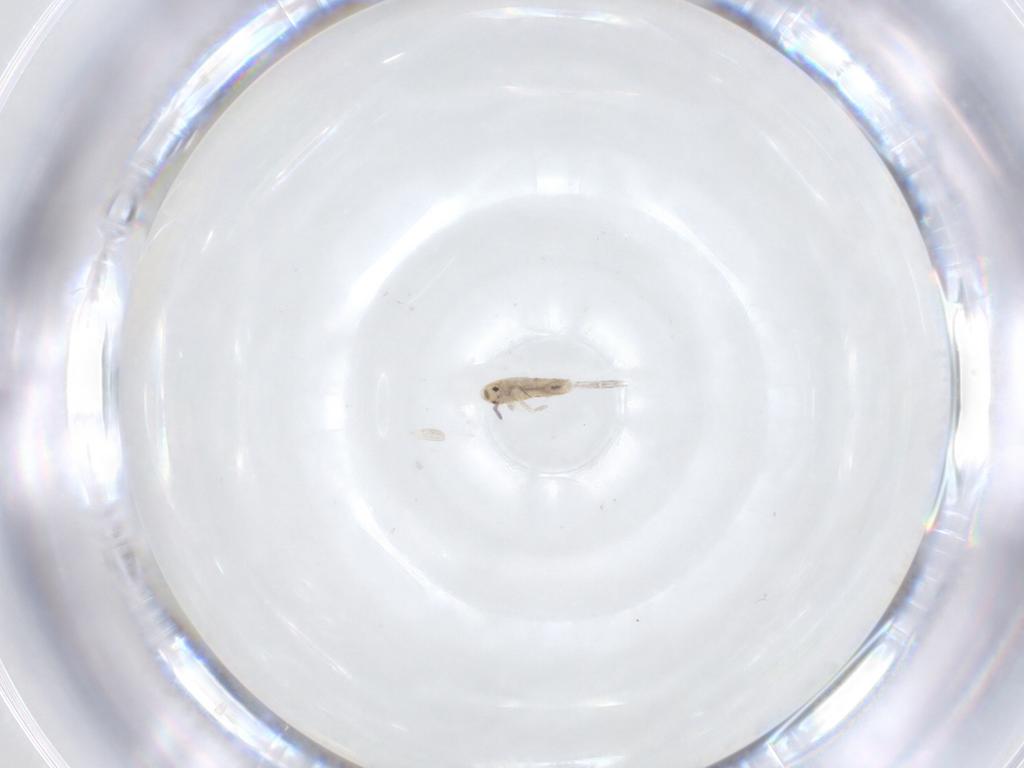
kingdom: Animalia
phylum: Arthropoda
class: Collembola
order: Entomobryomorpha
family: Entomobryidae
